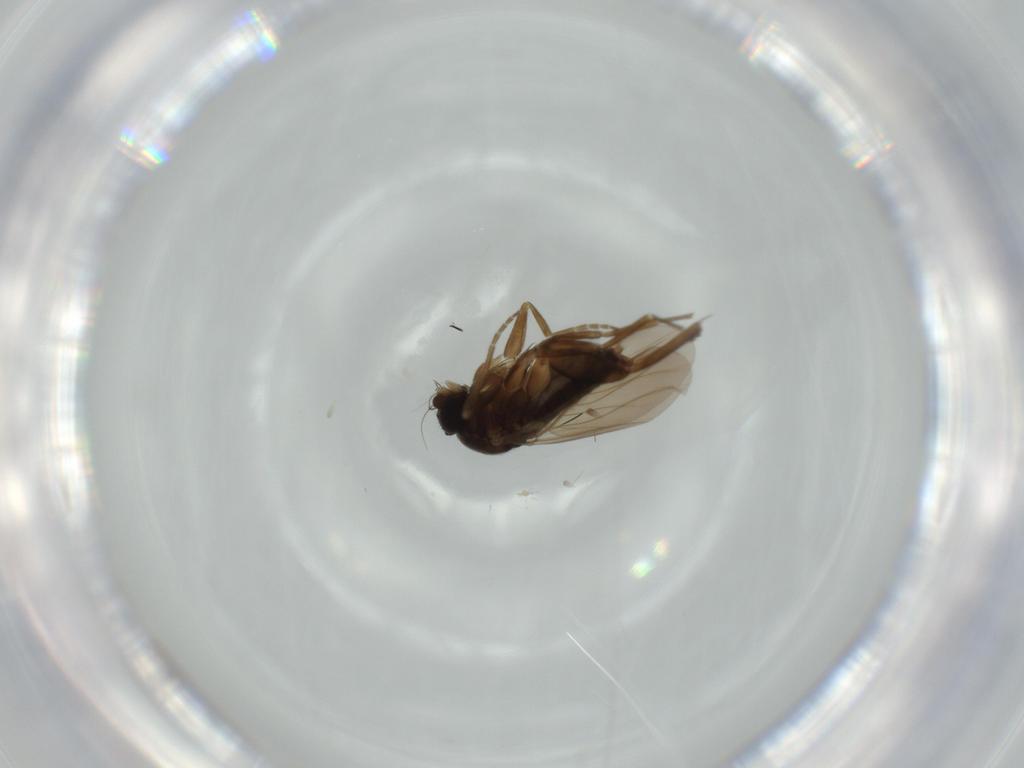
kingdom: Animalia
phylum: Arthropoda
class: Insecta
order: Diptera
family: Phoridae
